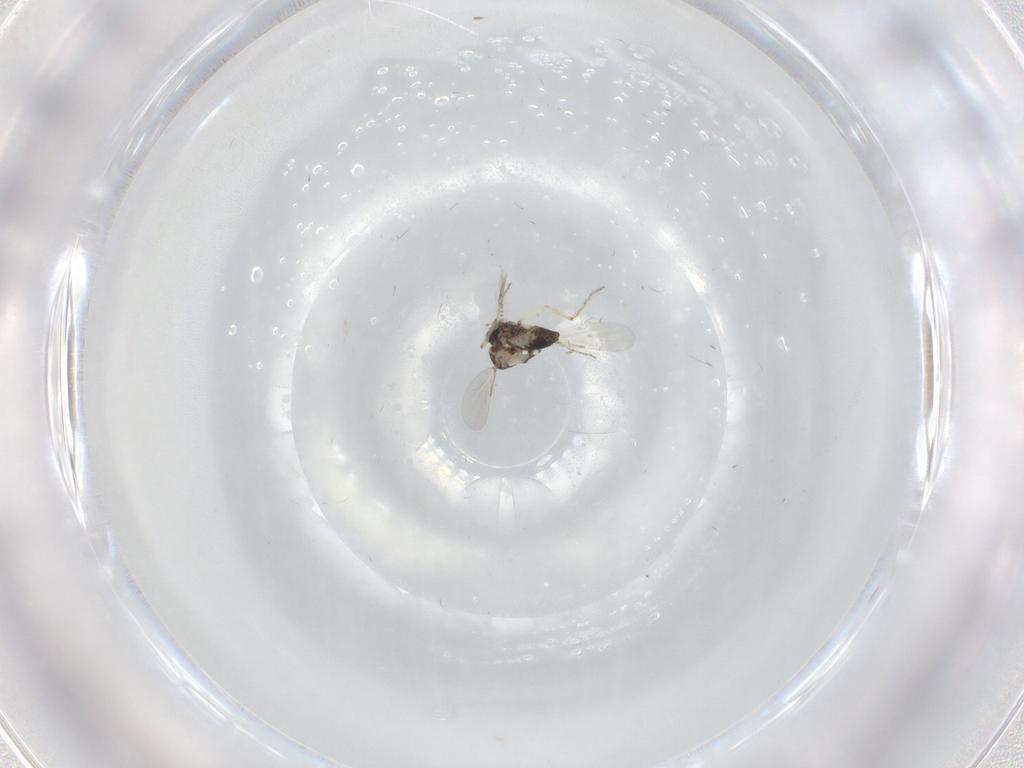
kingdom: Animalia
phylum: Arthropoda
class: Insecta
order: Diptera
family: Ceratopogonidae
